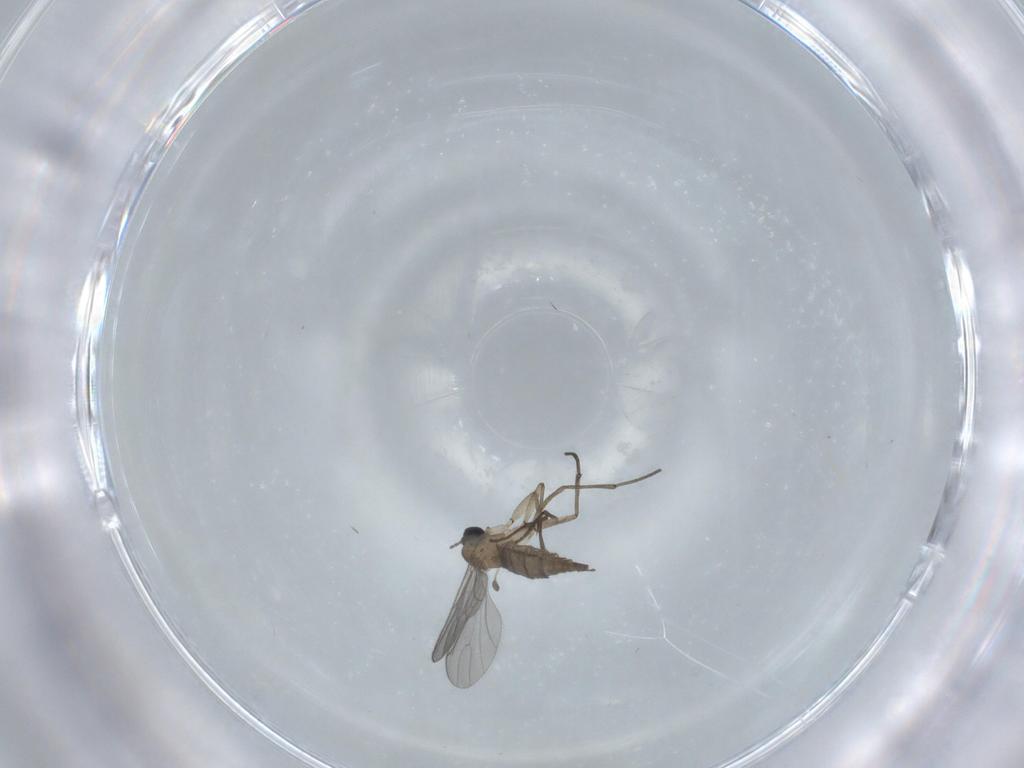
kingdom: Animalia
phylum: Arthropoda
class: Insecta
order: Diptera
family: Sciaridae
